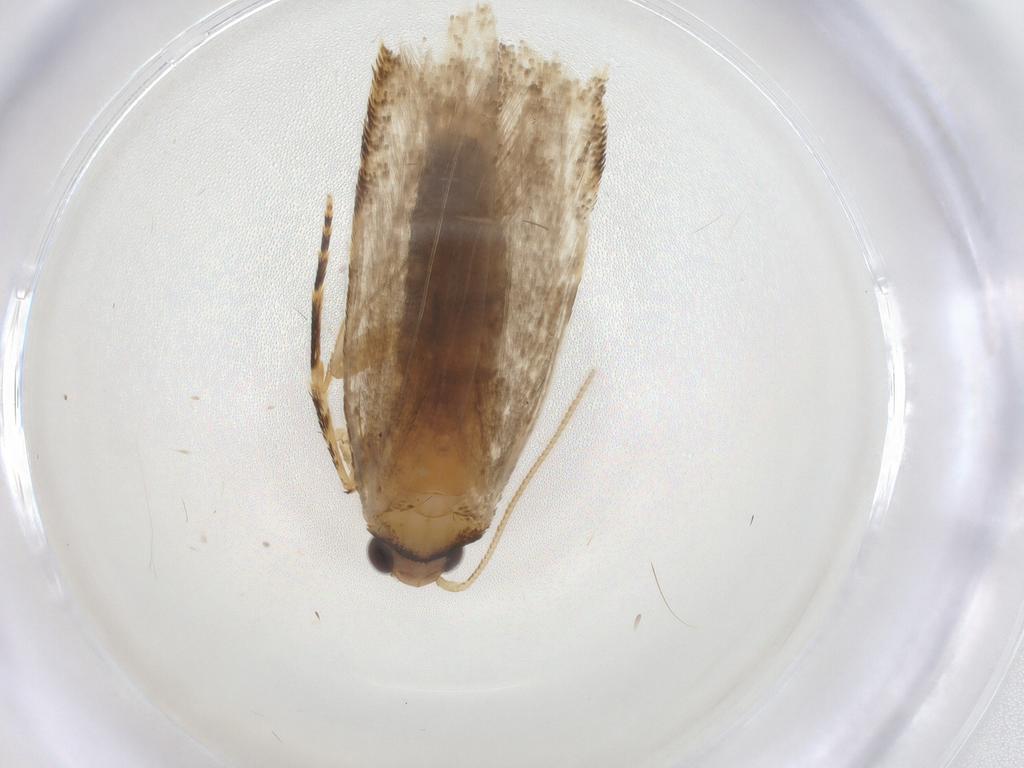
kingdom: Animalia
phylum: Arthropoda
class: Insecta
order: Lepidoptera
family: Tineidae
